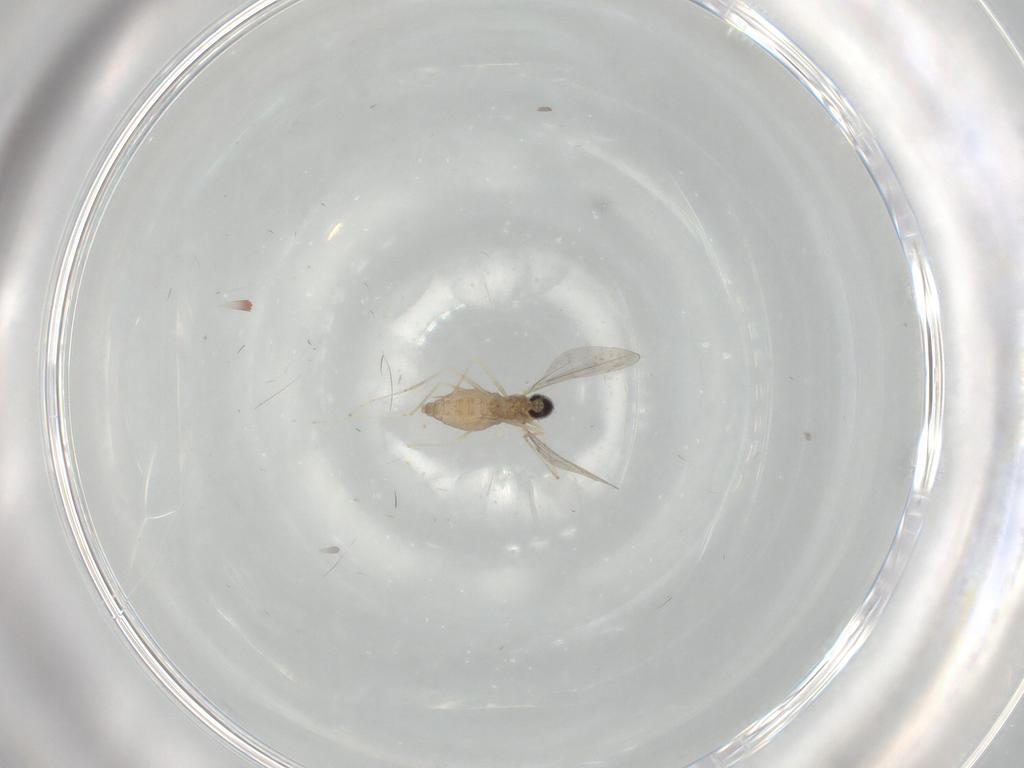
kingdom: Animalia
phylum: Arthropoda
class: Insecta
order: Diptera
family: Cecidomyiidae
